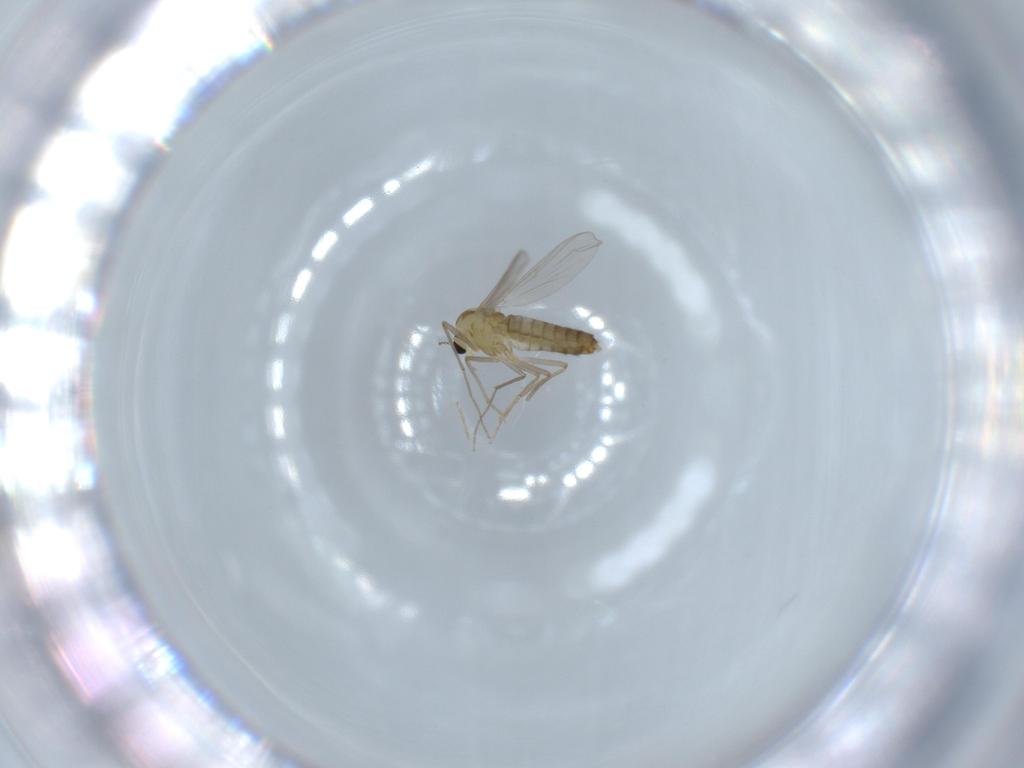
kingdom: Animalia
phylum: Arthropoda
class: Insecta
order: Diptera
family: Chironomidae
